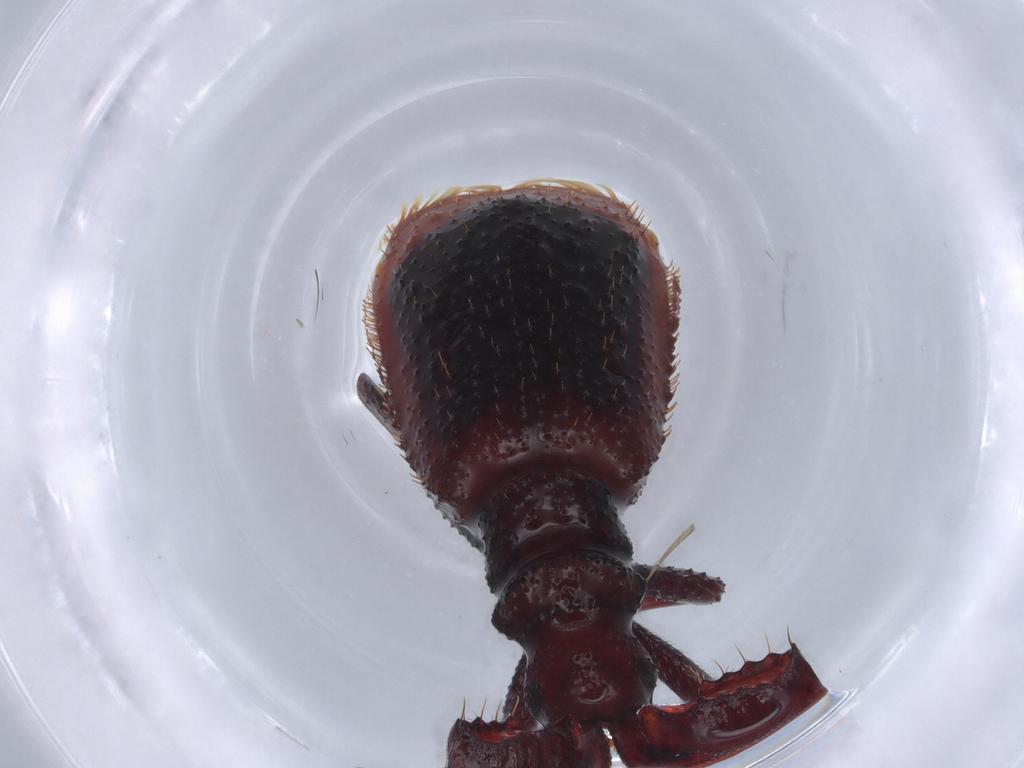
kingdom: Animalia
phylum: Arthropoda
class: Insecta
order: Coleoptera
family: Carabidae
